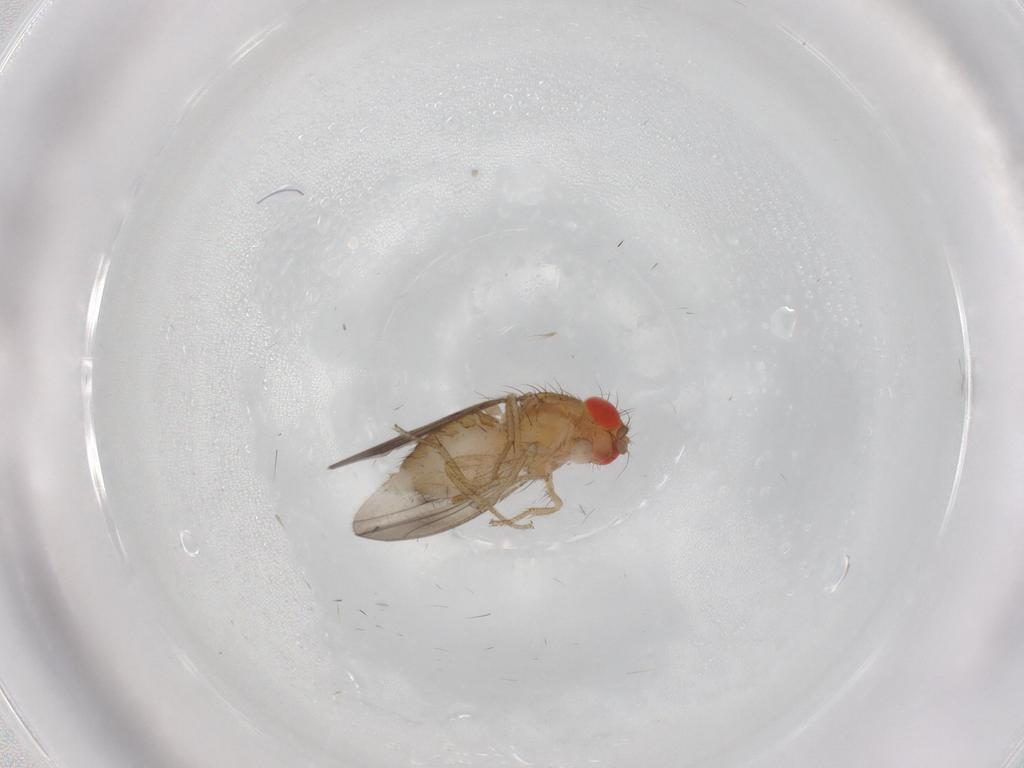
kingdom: Animalia
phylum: Arthropoda
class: Insecta
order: Diptera
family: Drosophilidae
